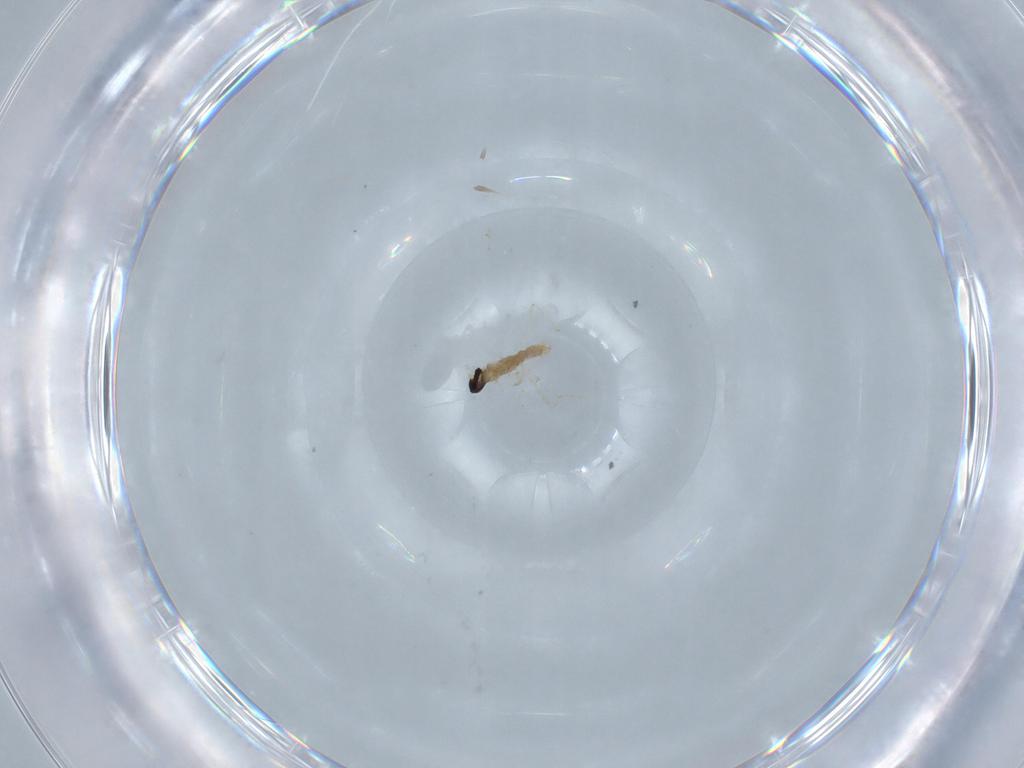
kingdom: Animalia
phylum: Arthropoda
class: Insecta
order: Diptera
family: Cecidomyiidae
